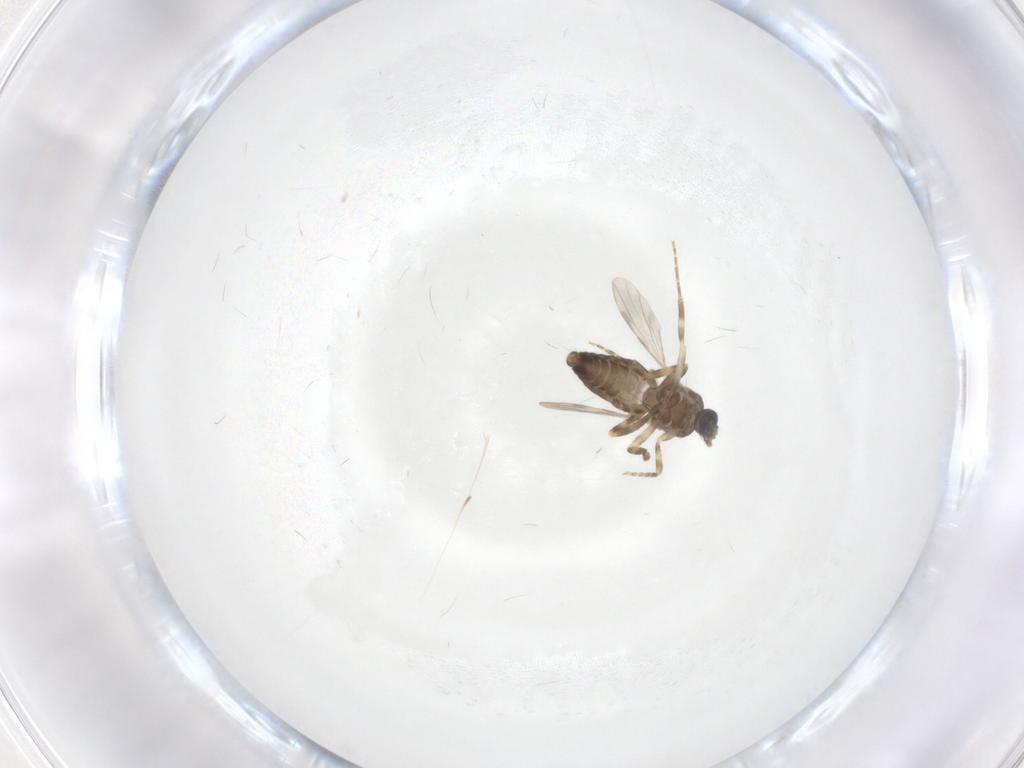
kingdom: Animalia
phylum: Arthropoda
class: Insecta
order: Diptera
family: Ceratopogonidae
